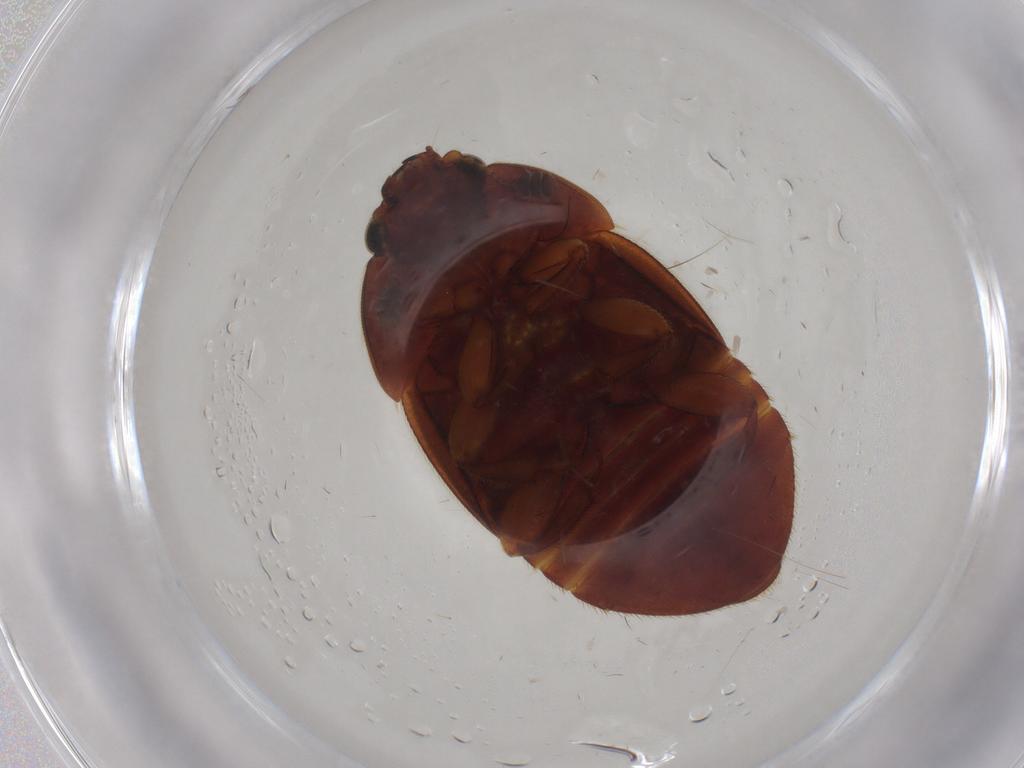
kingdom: Animalia
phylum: Arthropoda
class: Insecta
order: Coleoptera
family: Nitidulidae
